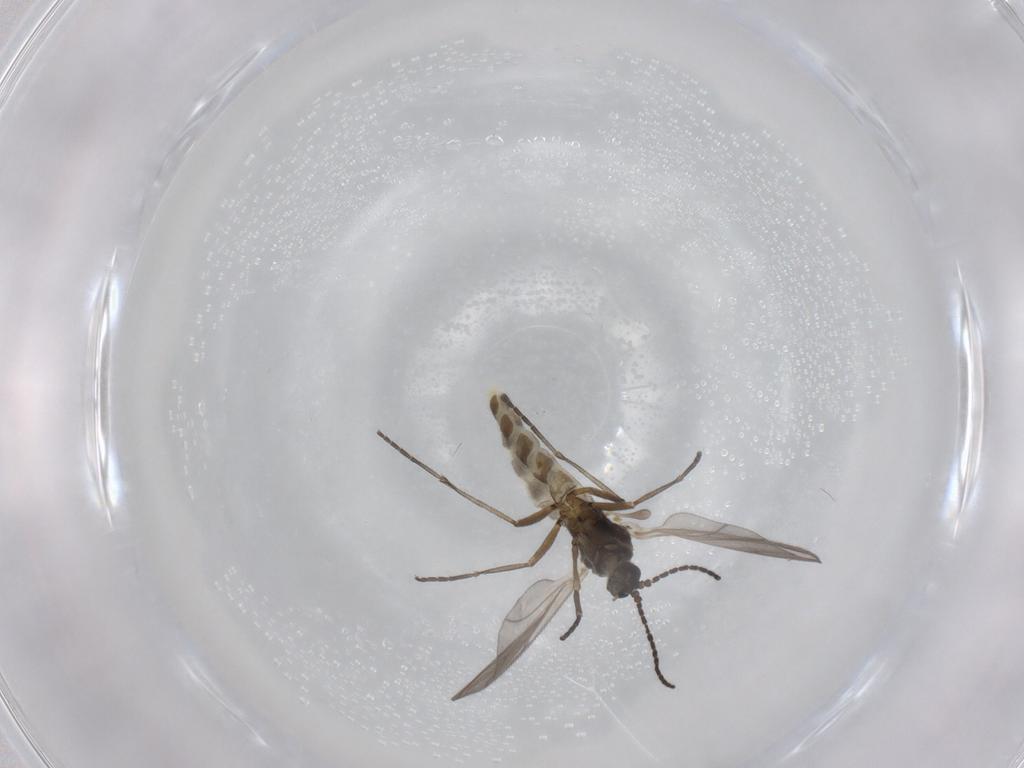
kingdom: Animalia
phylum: Arthropoda
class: Insecta
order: Diptera
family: Sciaridae
